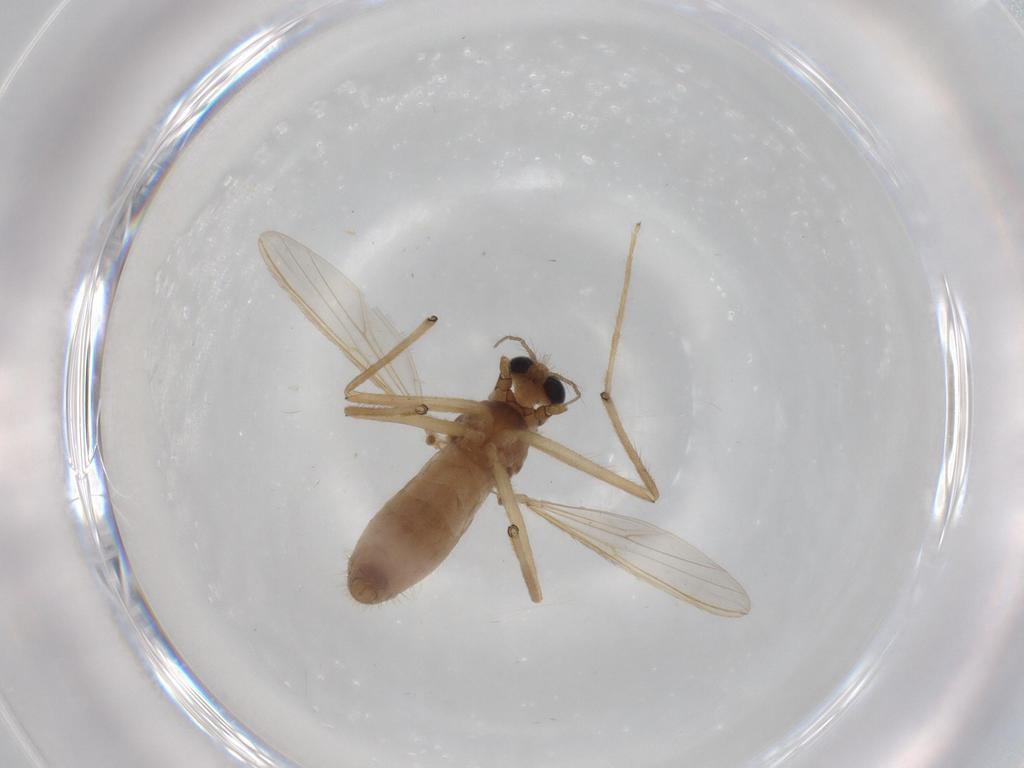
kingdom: Animalia
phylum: Arthropoda
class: Insecta
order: Diptera
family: Chironomidae
